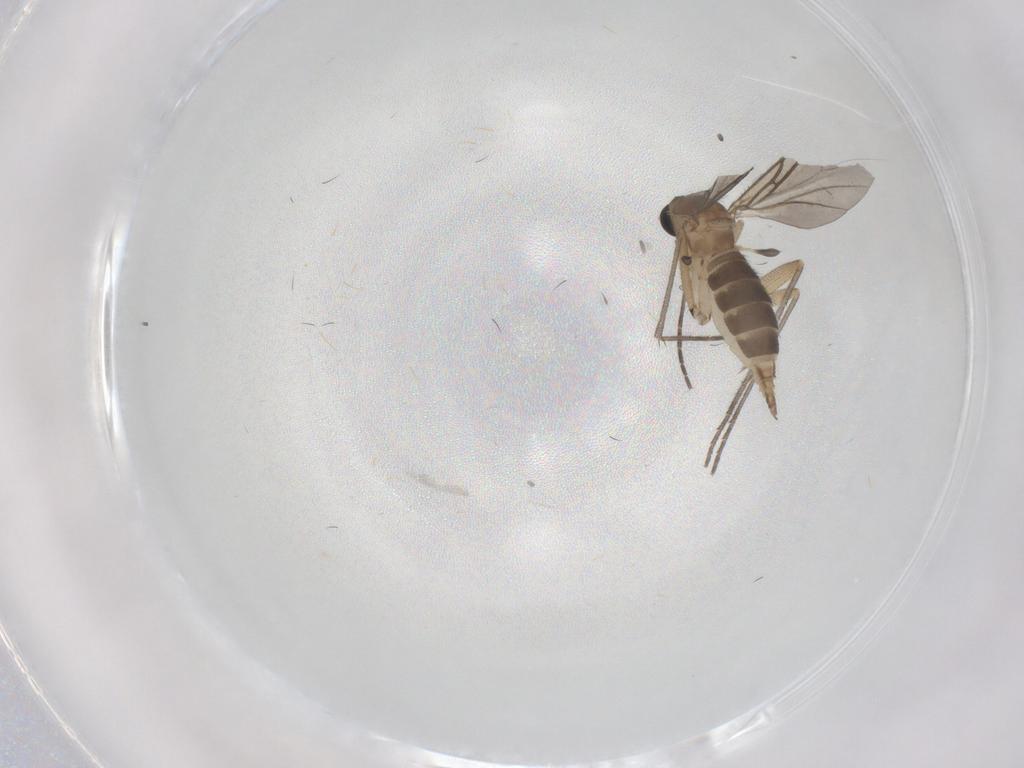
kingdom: Animalia
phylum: Arthropoda
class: Insecta
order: Diptera
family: Sciaridae
